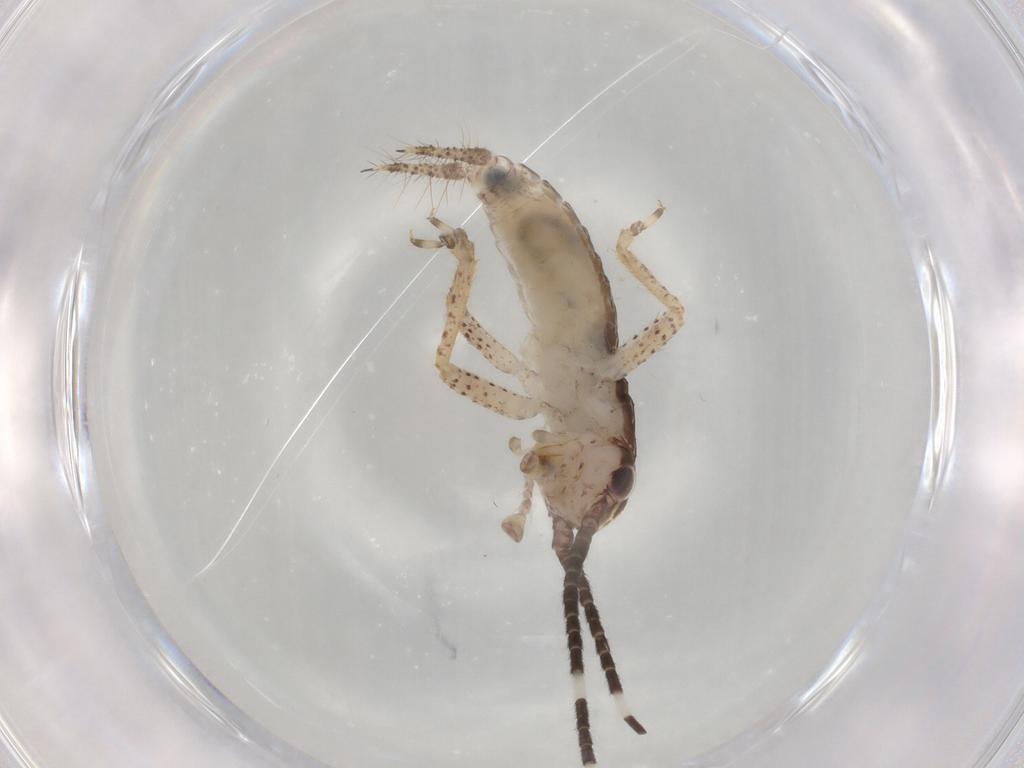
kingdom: Animalia
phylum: Arthropoda
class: Insecta
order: Orthoptera
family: Gryllidae
